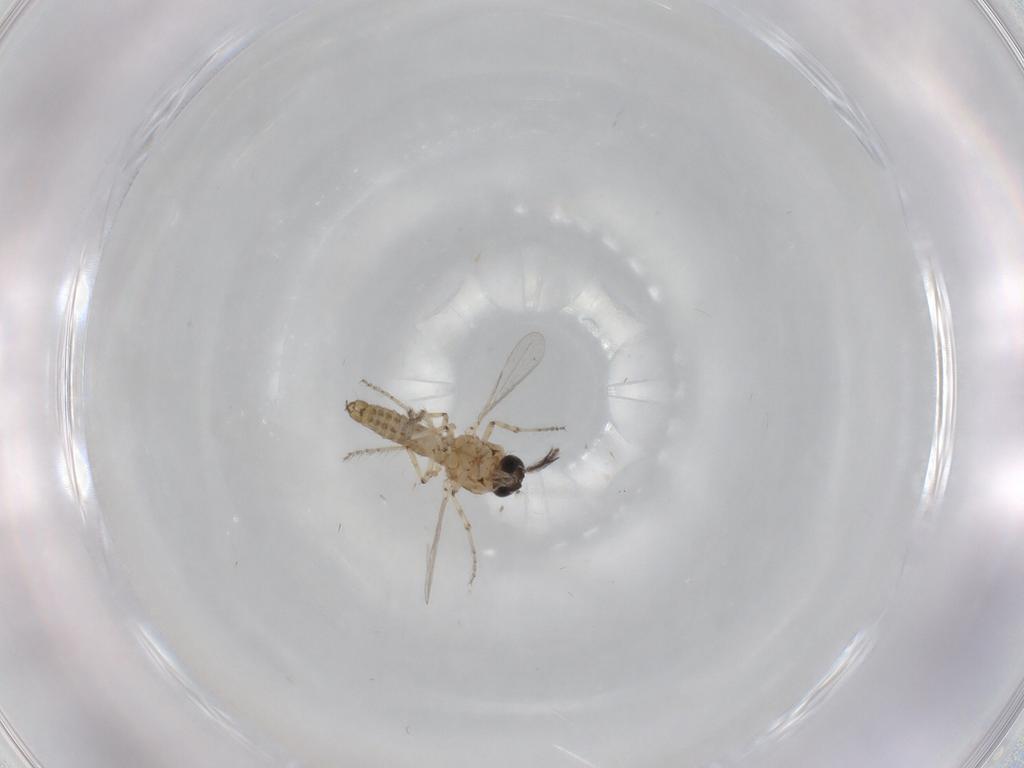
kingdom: Animalia
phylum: Arthropoda
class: Insecta
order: Diptera
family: Ceratopogonidae
